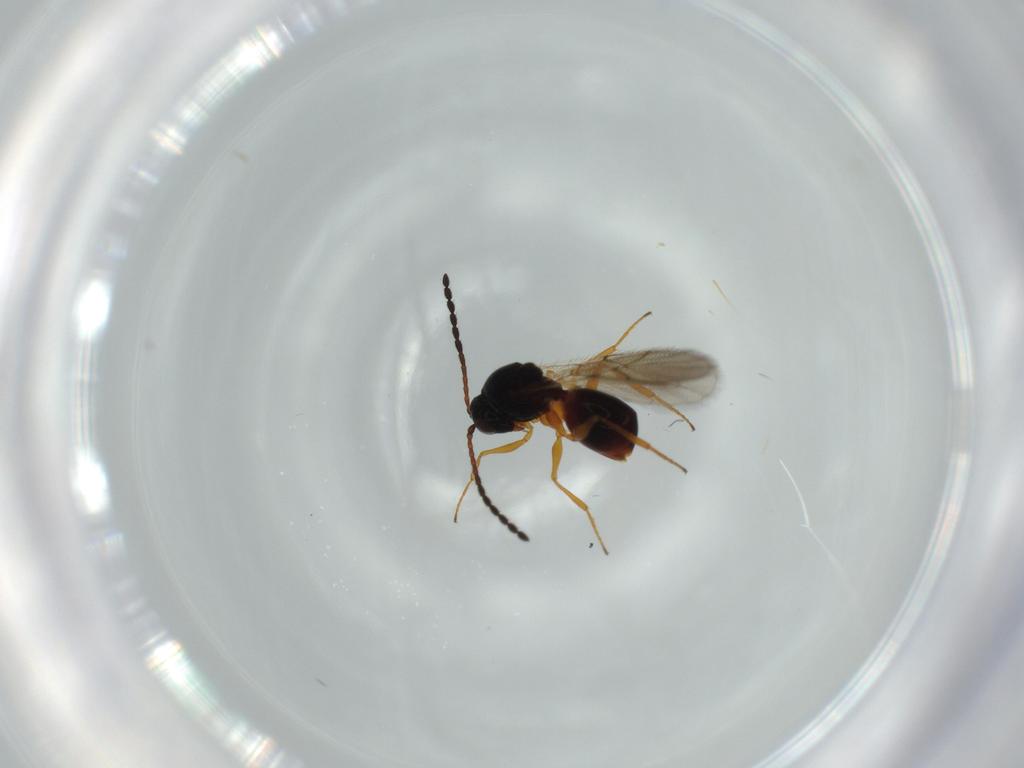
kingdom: Animalia
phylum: Arthropoda
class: Insecta
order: Hymenoptera
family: Figitidae
